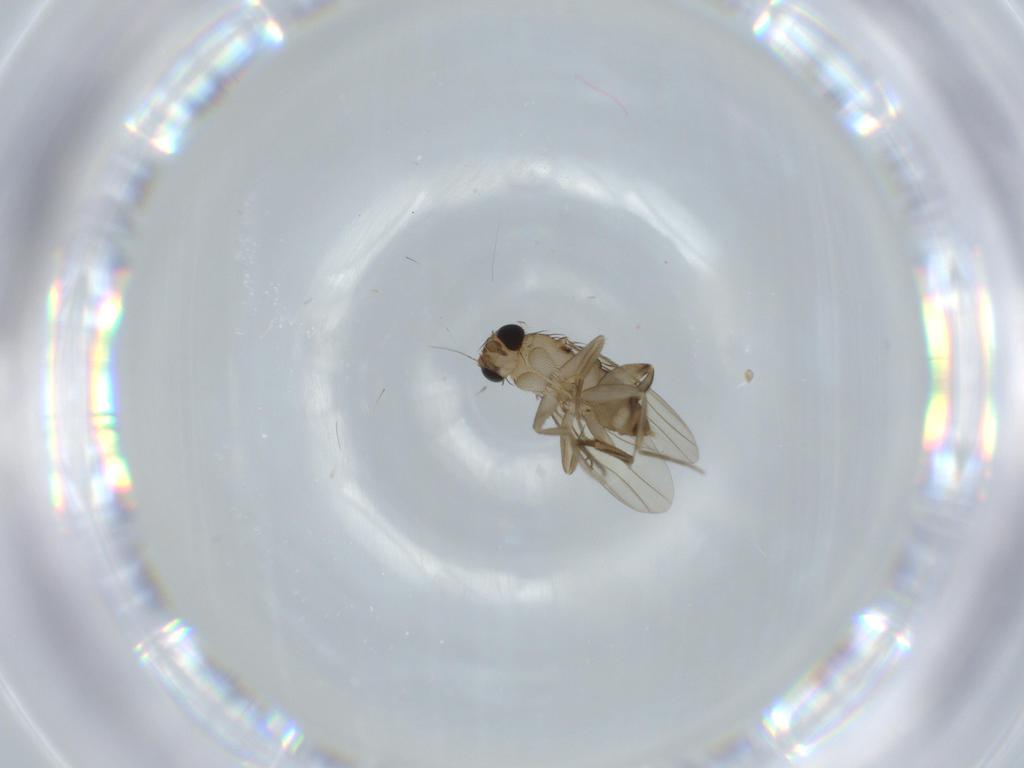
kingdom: Animalia
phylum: Arthropoda
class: Insecta
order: Diptera
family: Phoridae
